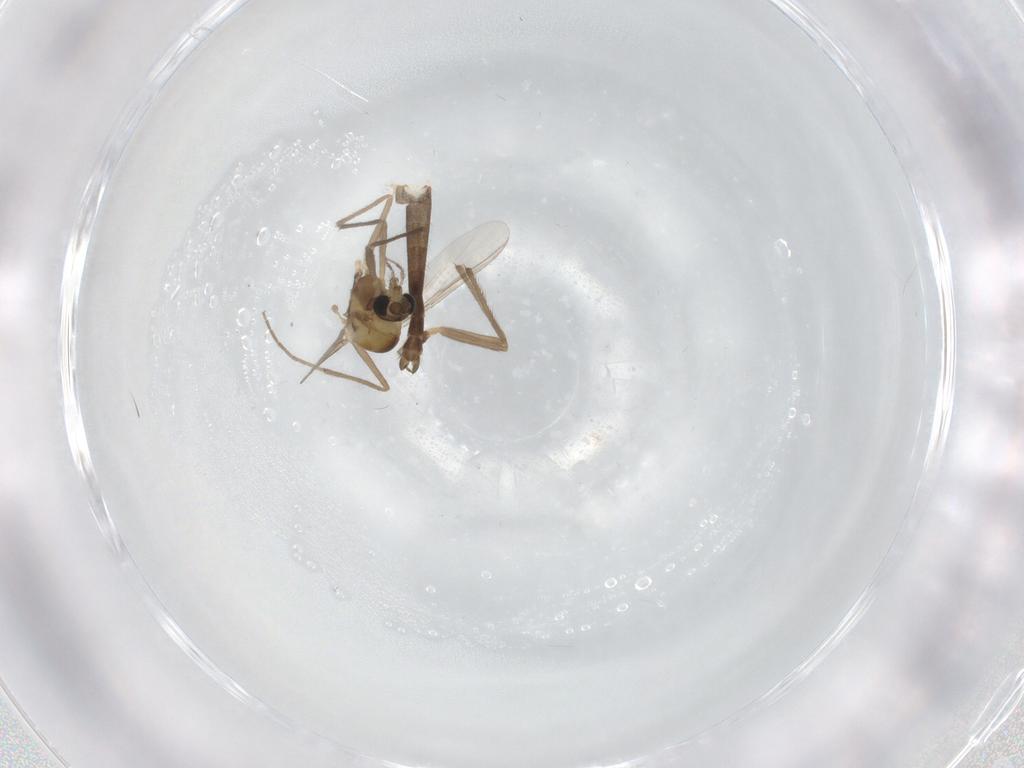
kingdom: Animalia
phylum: Arthropoda
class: Insecta
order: Diptera
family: Chironomidae
